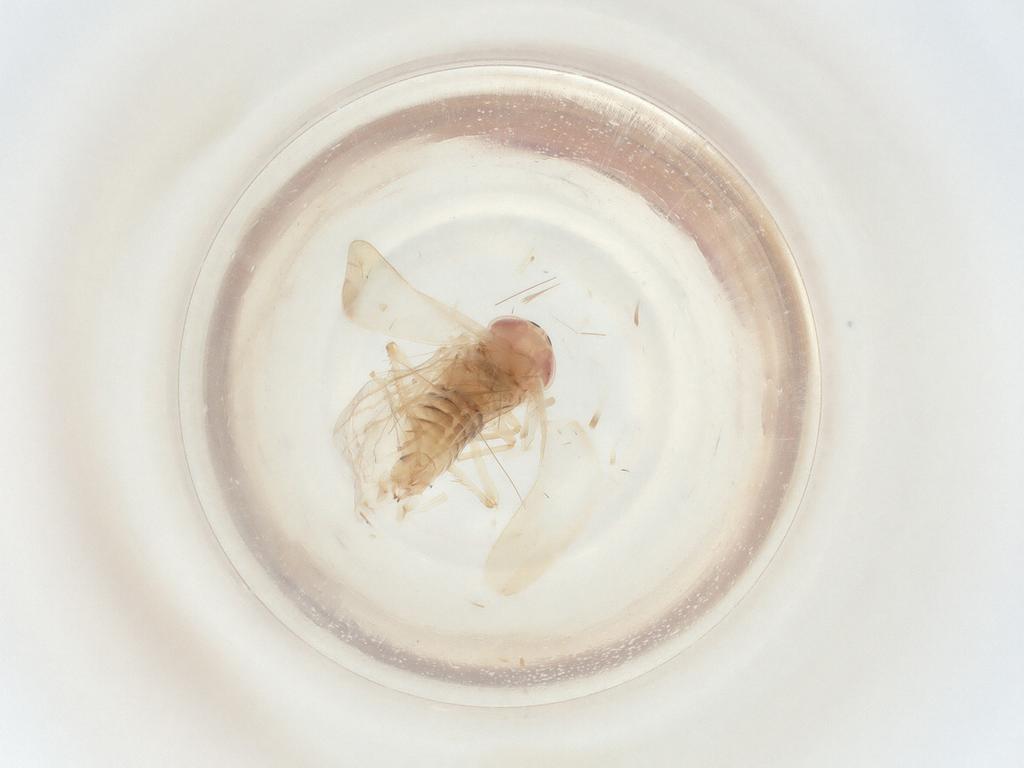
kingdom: Animalia
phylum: Arthropoda
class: Insecta
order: Hemiptera
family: Cicadellidae
